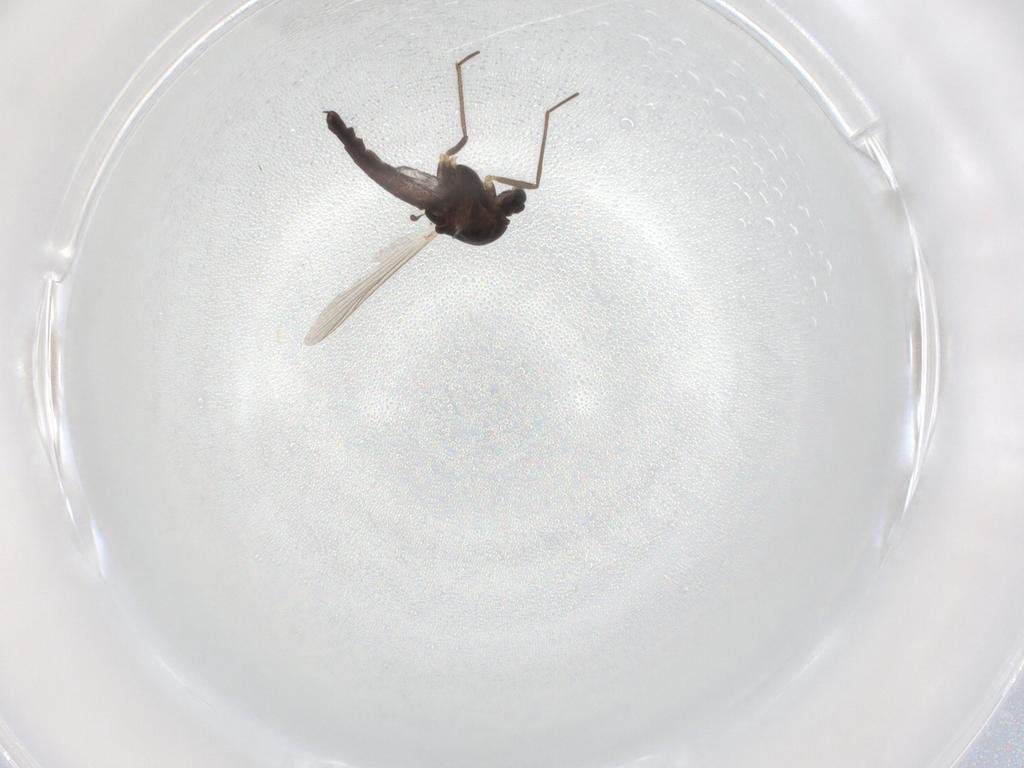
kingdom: Animalia
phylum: Arthropoda
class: Insecta
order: Diptera
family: Chironomidae
